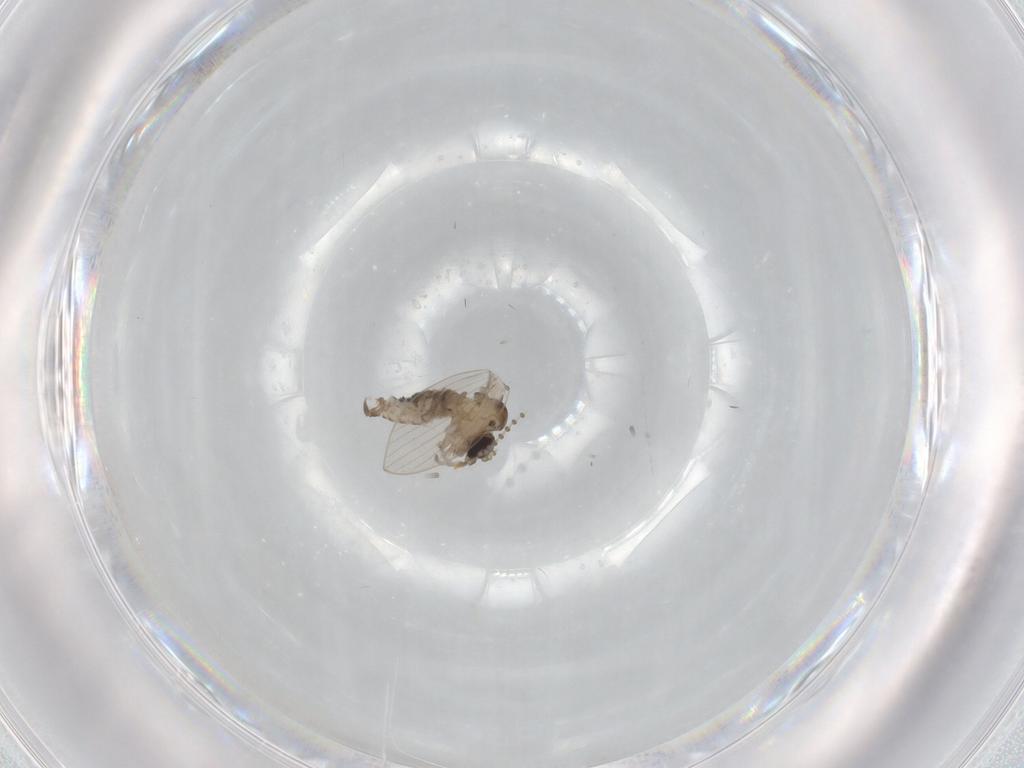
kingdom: Animalia
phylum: Arthropoda
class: Insecta
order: Diptera
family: Psychodidae
